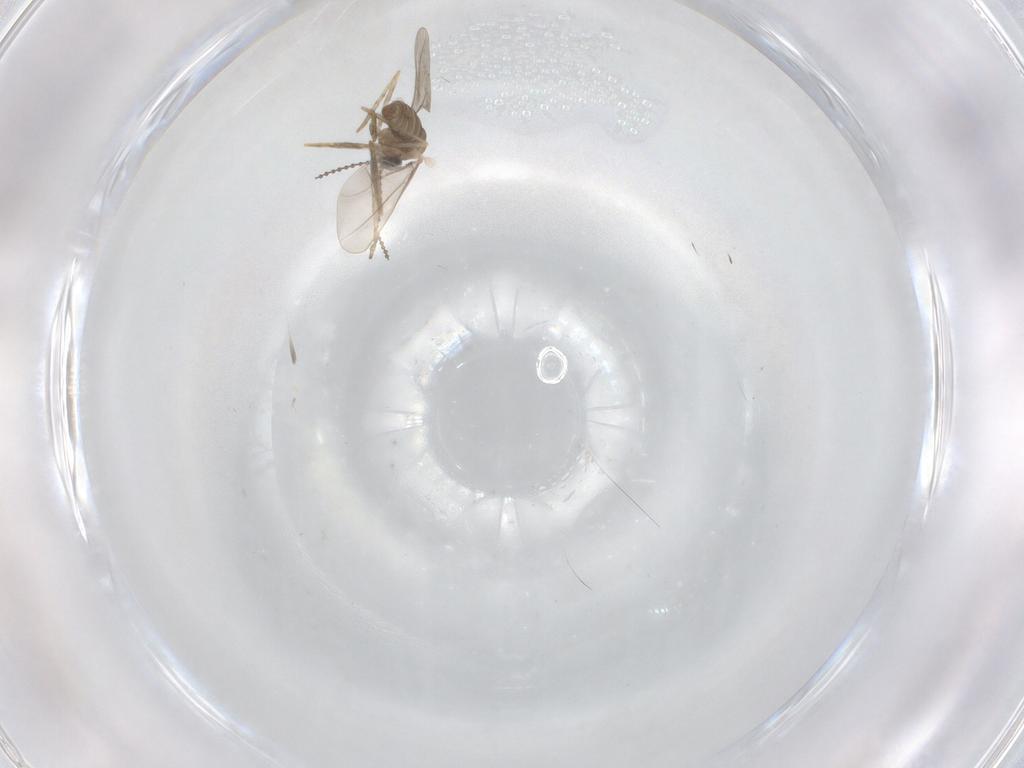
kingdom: Animalia
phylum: Arthropoda
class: Insecta
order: Diptera
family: Cecidomyiidae
